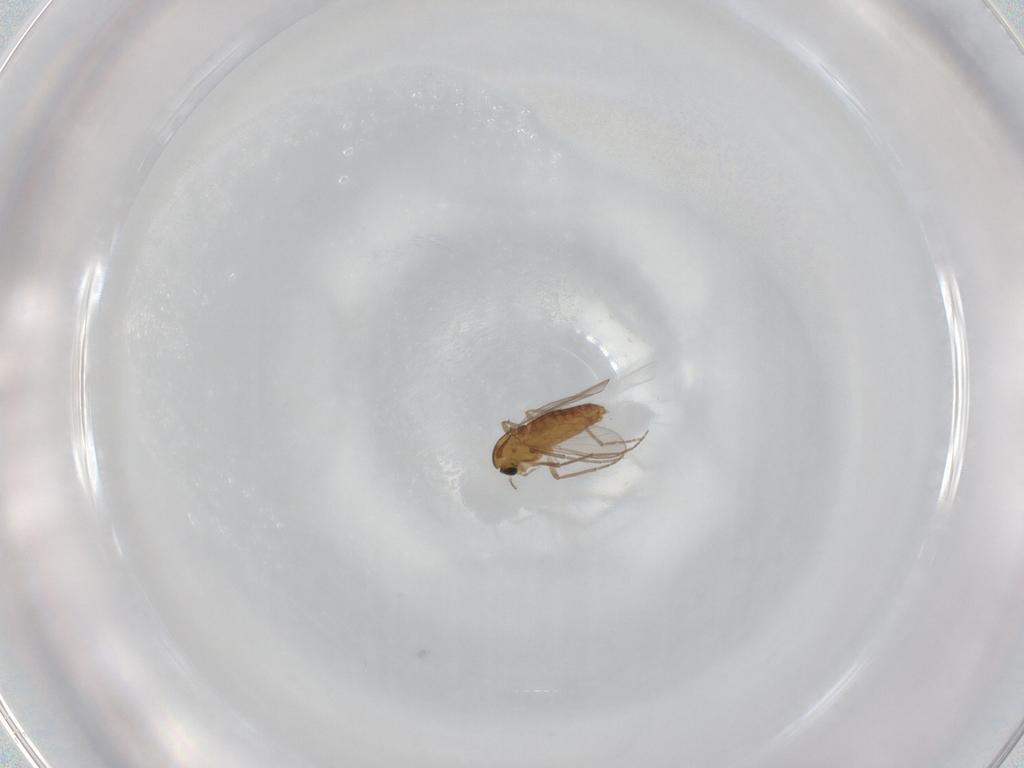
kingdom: Animalia
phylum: Arthropoda
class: Insecta
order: Diptera
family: Chironomidae
